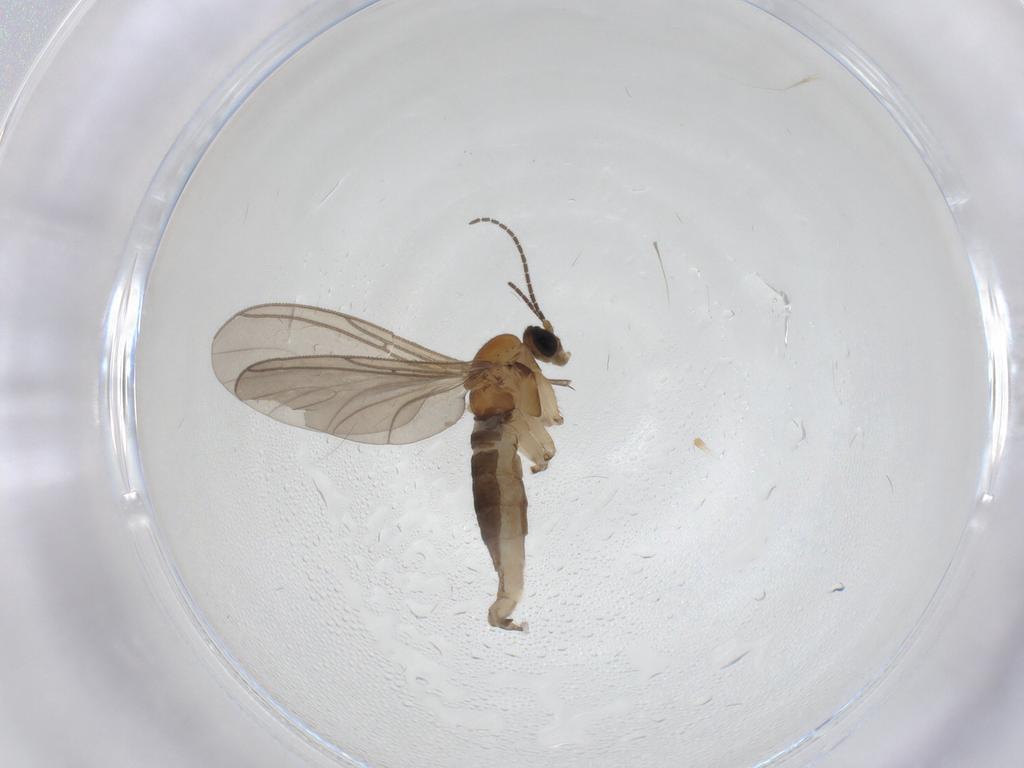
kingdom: Animalia
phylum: Arthropoda
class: Insecta
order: Diptera
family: Sciaridae
